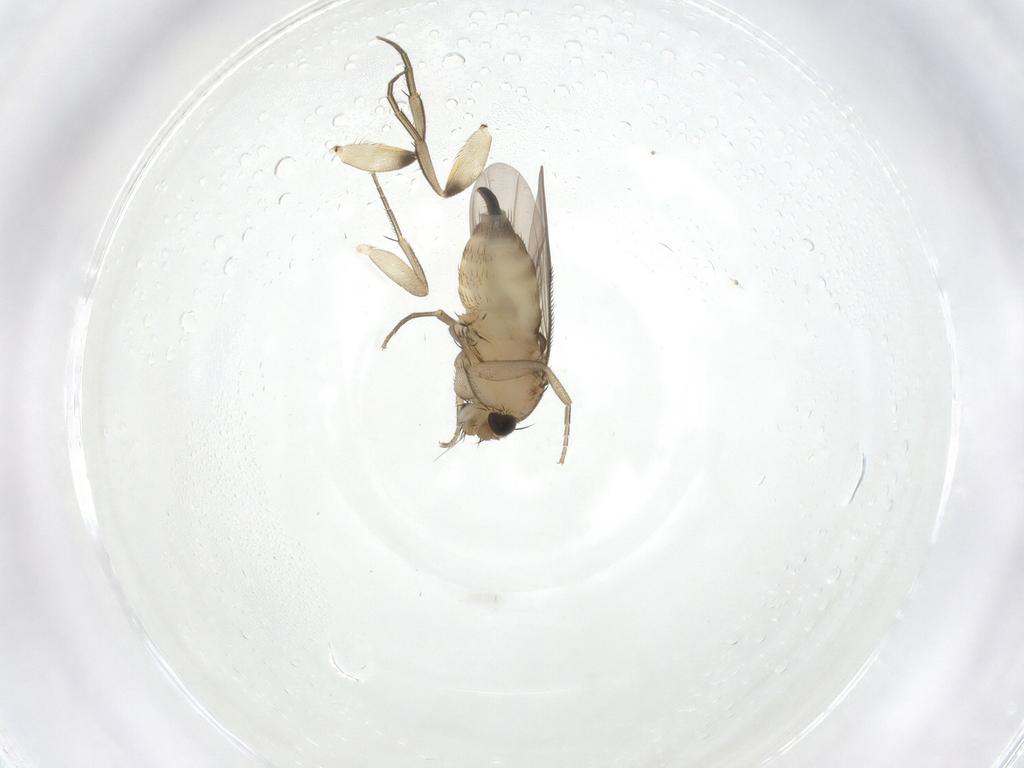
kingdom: Animalia
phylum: Arthropoda
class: Insecta
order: Diptera
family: Phoridae
